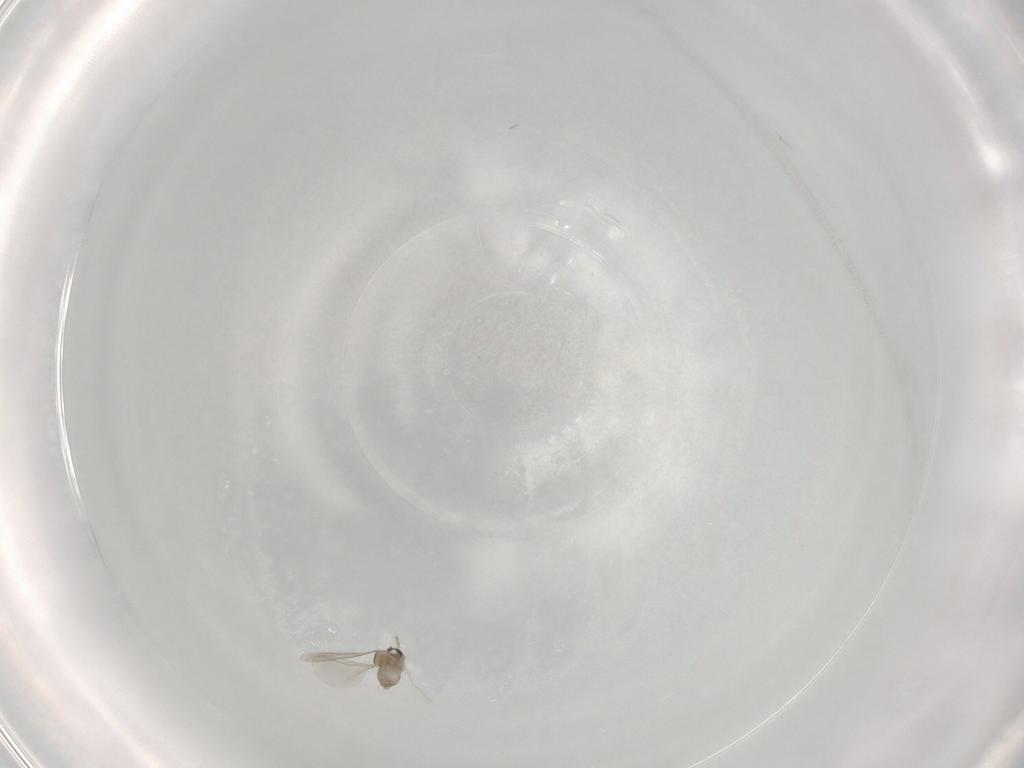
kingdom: Animalia
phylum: Arthropoda
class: Insecta
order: Diptera
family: Cecidomyiidae
